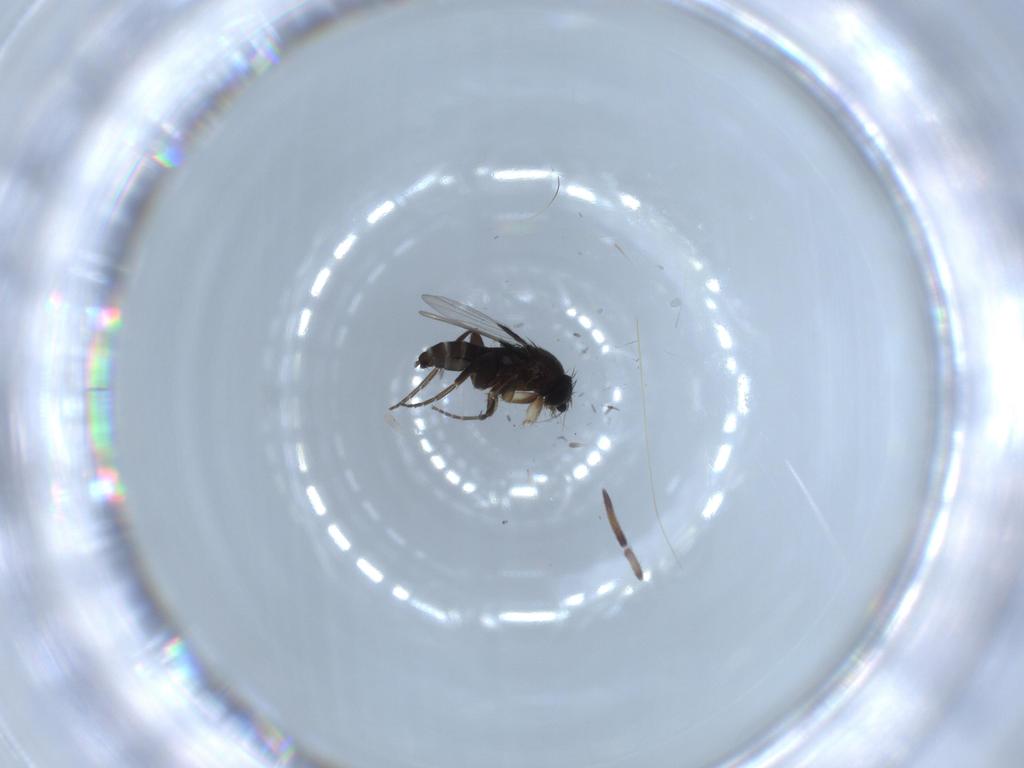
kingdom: Animalia
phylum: Arthropoda
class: Insecta
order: Diptera
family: Phoridae
